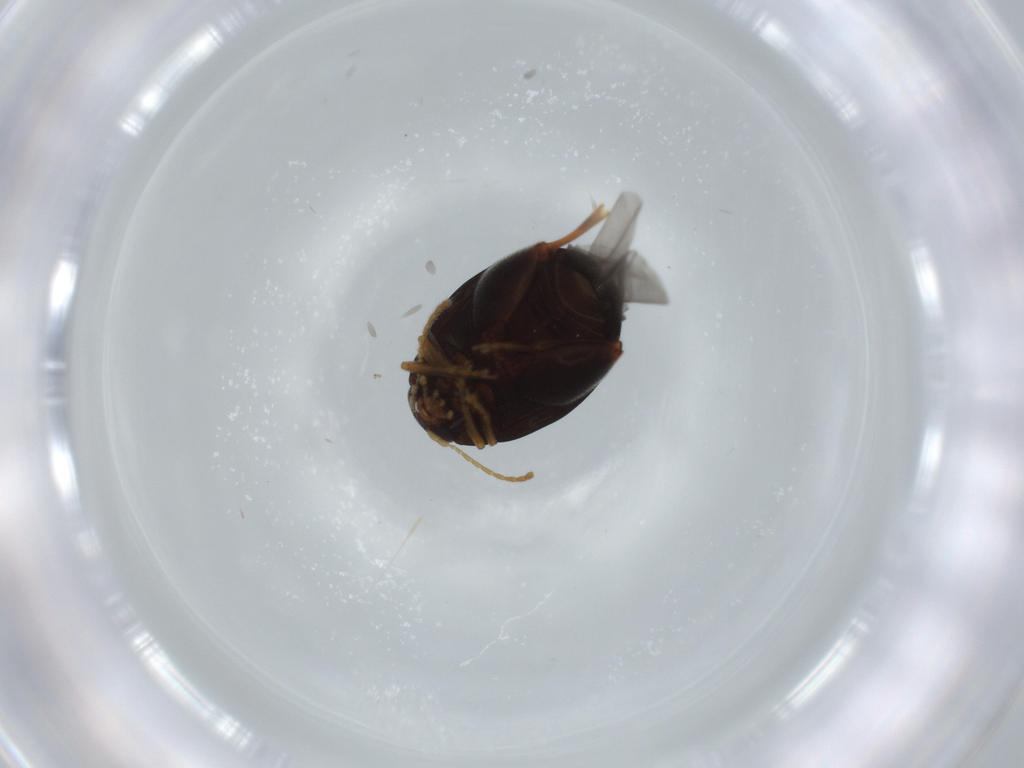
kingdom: Animalia
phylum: Arthropoda
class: Insecta
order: Coleoptera
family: Chrysomelidae
